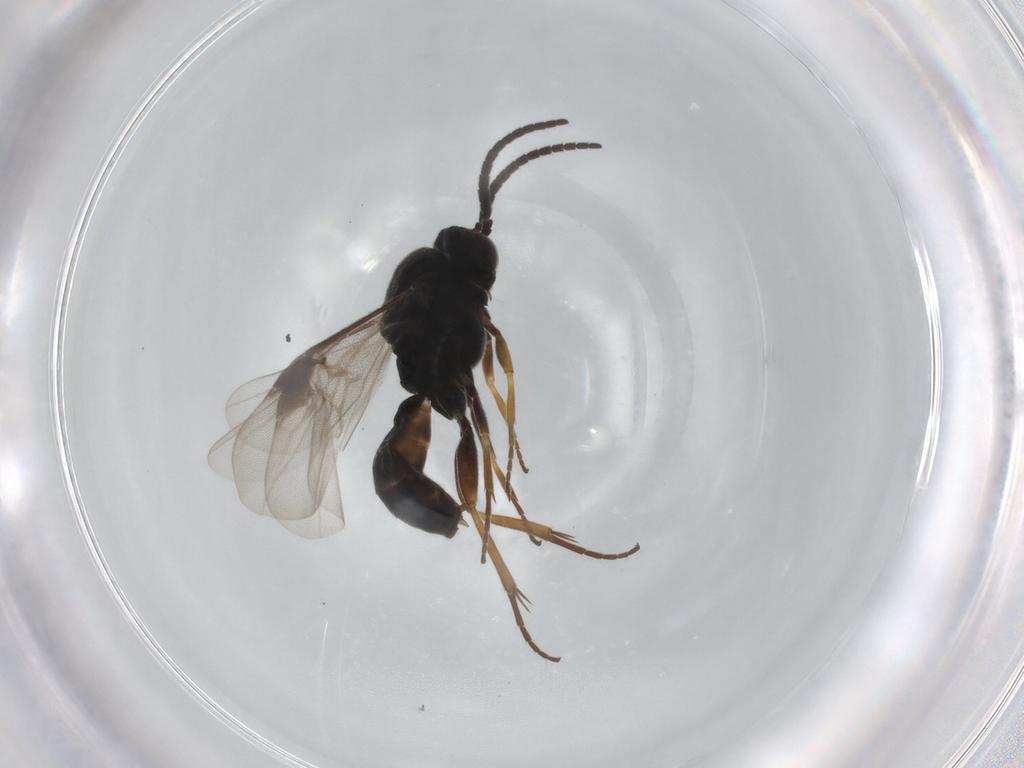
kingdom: Animalia
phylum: Arthropoda
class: Insecta
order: Hymenoptera
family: Braconidae
